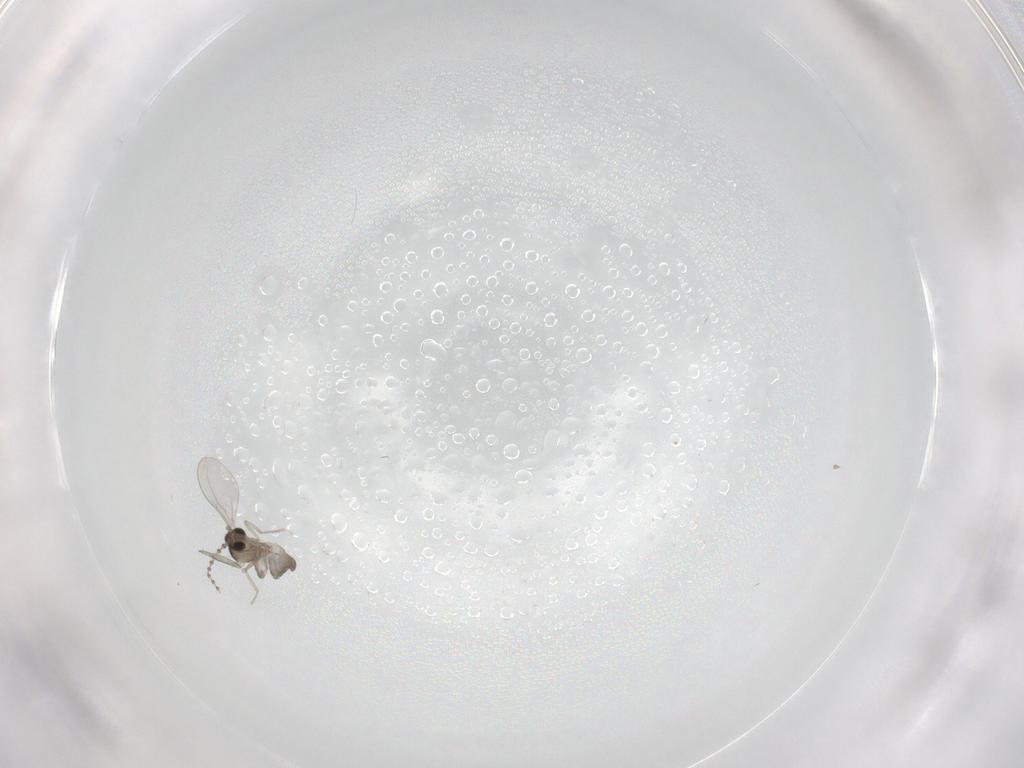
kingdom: Animalia
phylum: Arthropoda
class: Insecta
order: Diptera
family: Cecidomyiidae
